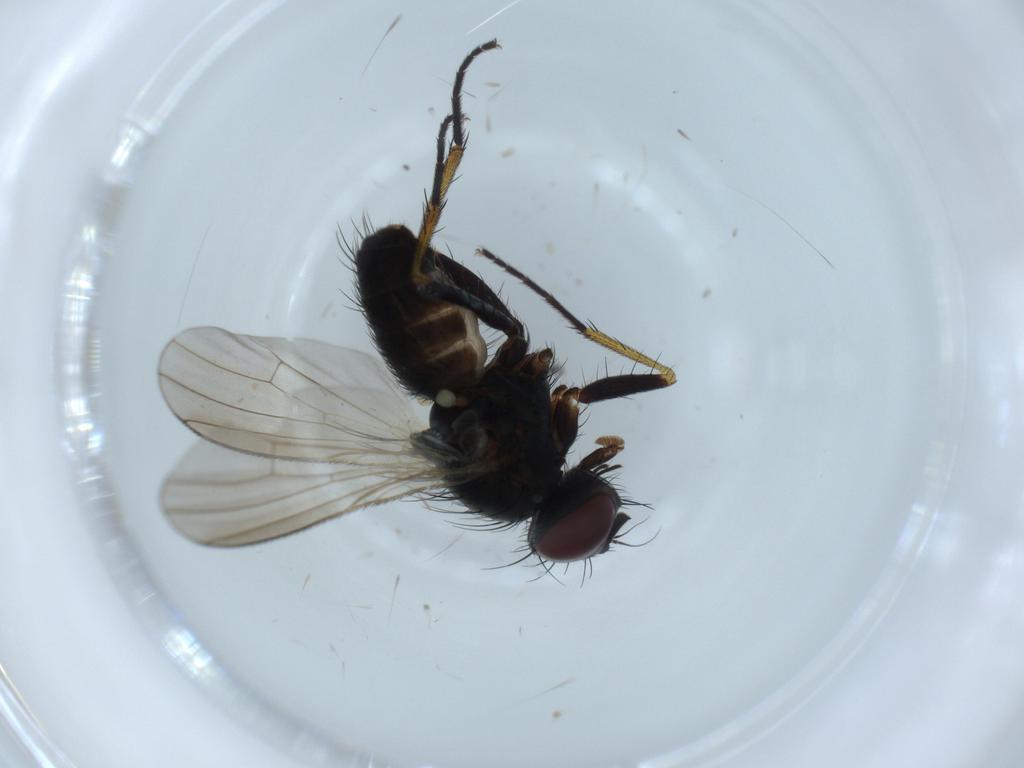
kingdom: Animalia
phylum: Arthropoda
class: Insecta
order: Diptera
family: Muscidae
